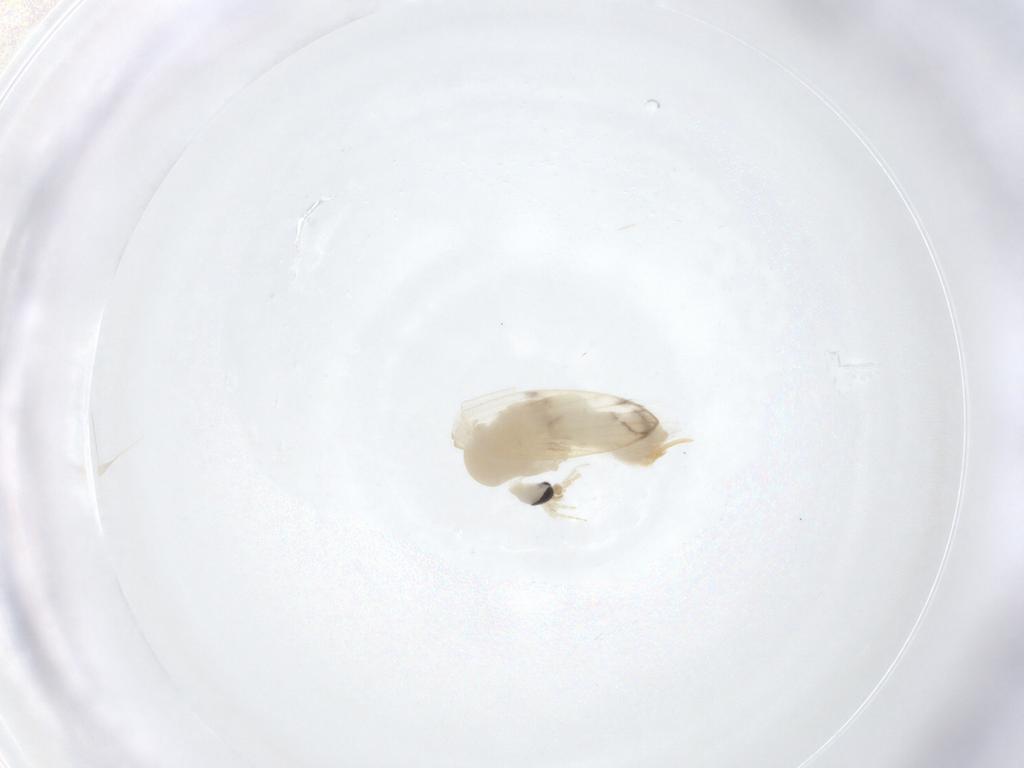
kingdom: Animalia
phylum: Arthropoda
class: Insecta
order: Diptera
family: Psychodidae
